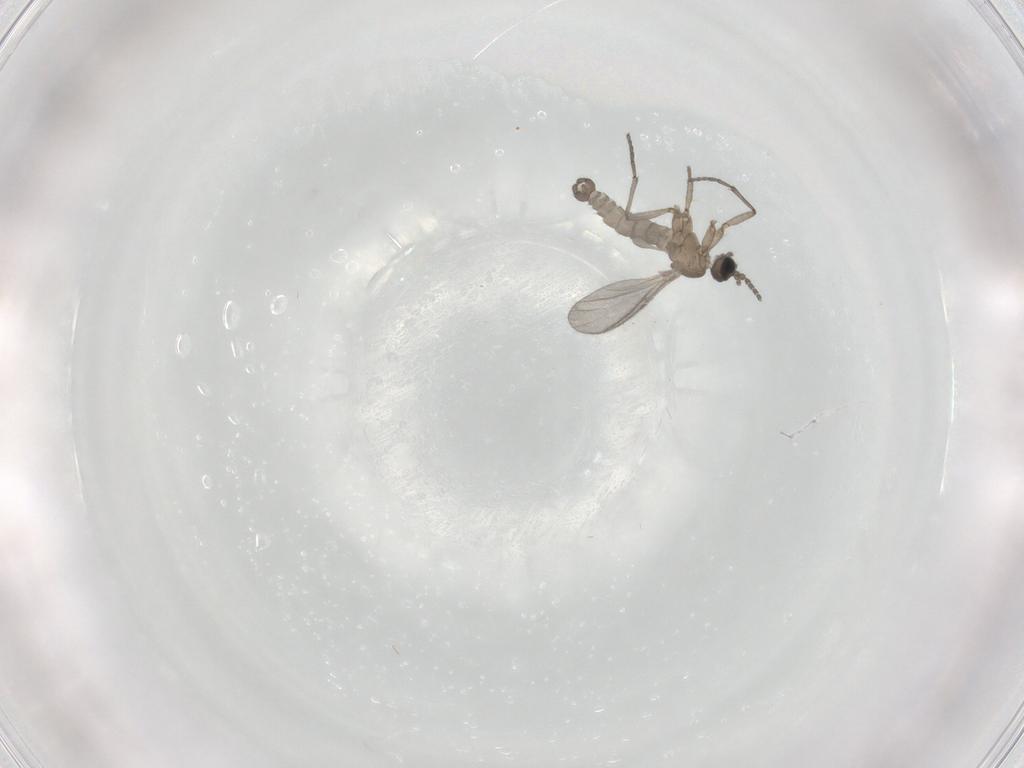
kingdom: Animalia
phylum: Arthropoda
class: Insecta
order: Diptera
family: Sciaridae
